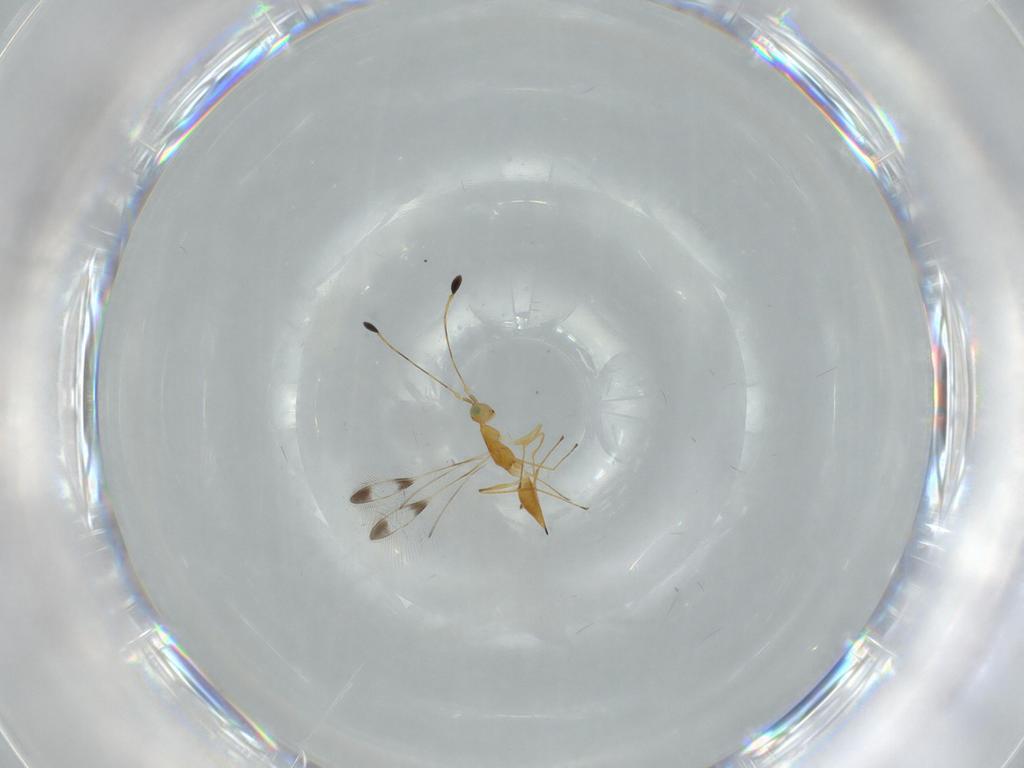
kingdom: Animalia
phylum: Arthropoda
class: Insecta
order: Hymenoptera
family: Mymaridae
